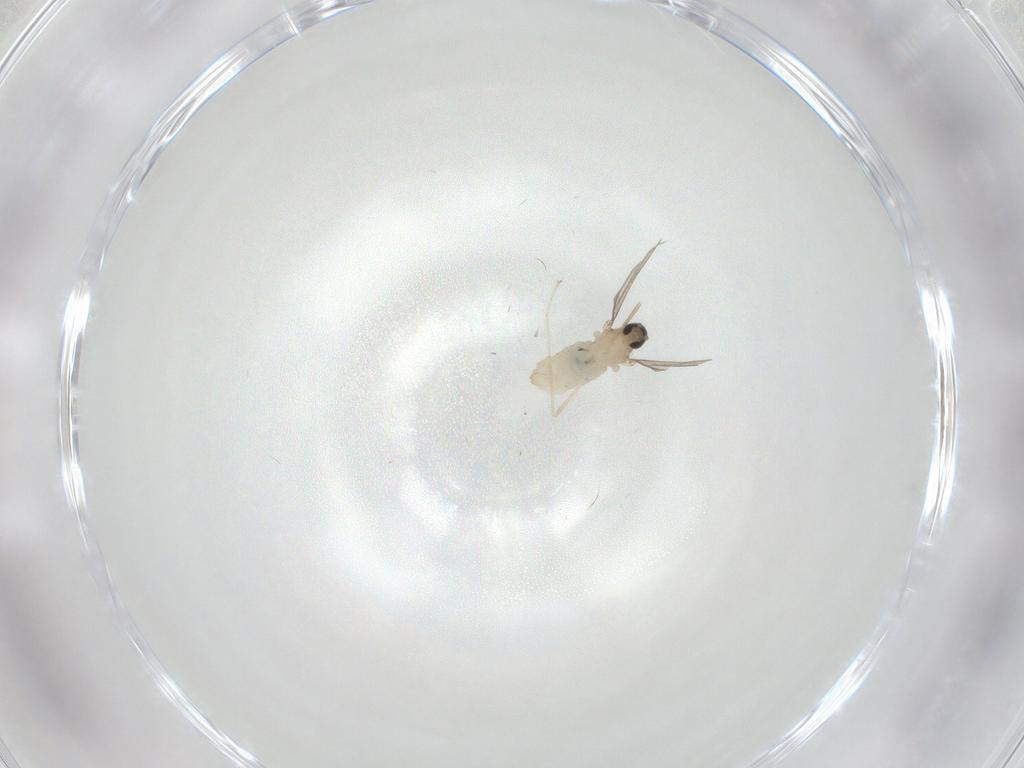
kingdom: Animalia
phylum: Arthropoda
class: Insecta
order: Diptera
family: Cecidomyiidae
